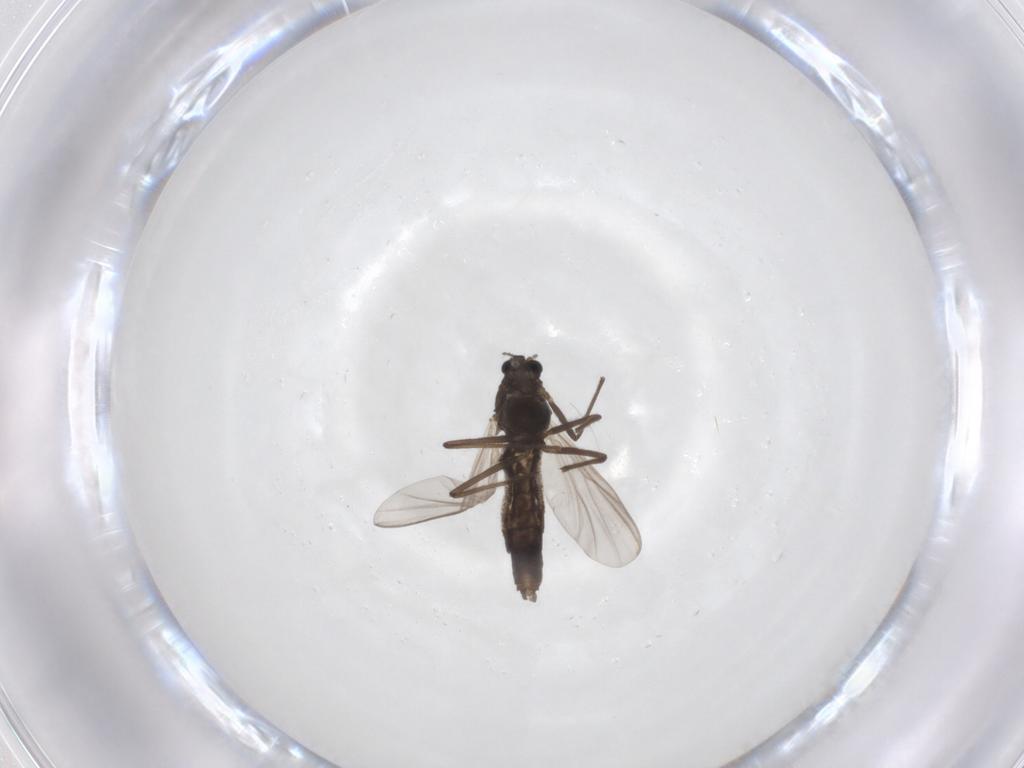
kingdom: Animalia
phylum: Arthropoda
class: Insecta
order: Diptera
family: Chironomidae
